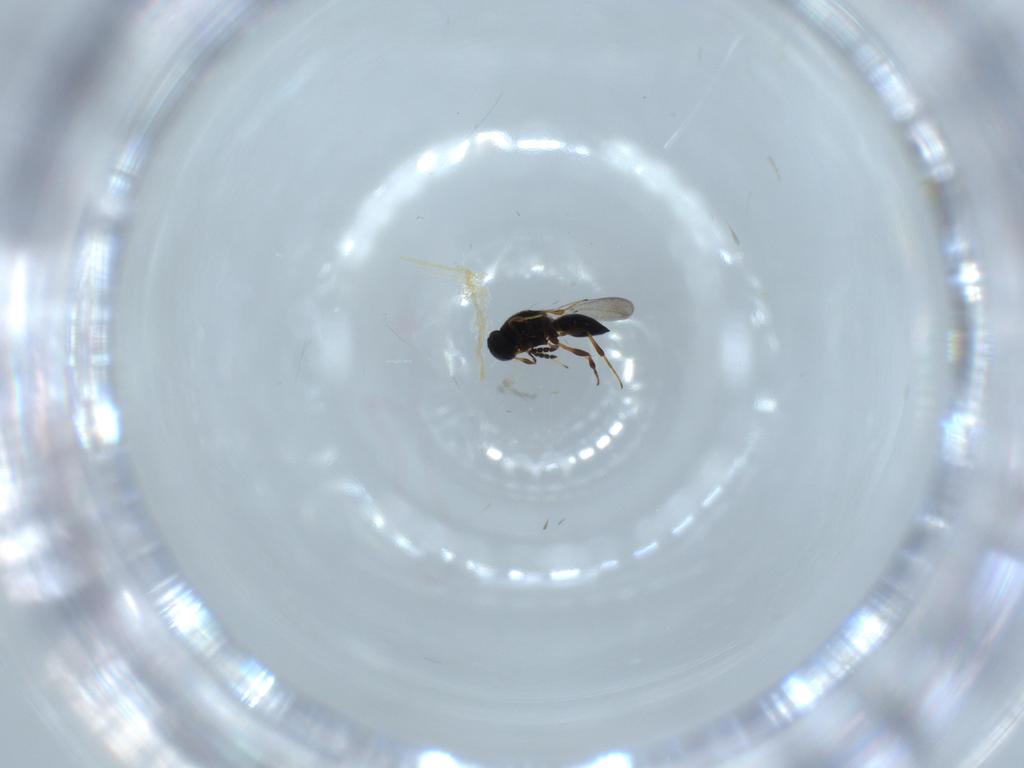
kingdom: Animalia
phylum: Arthropoda
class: Insecta
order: Hymenoptera
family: Platygastridae
